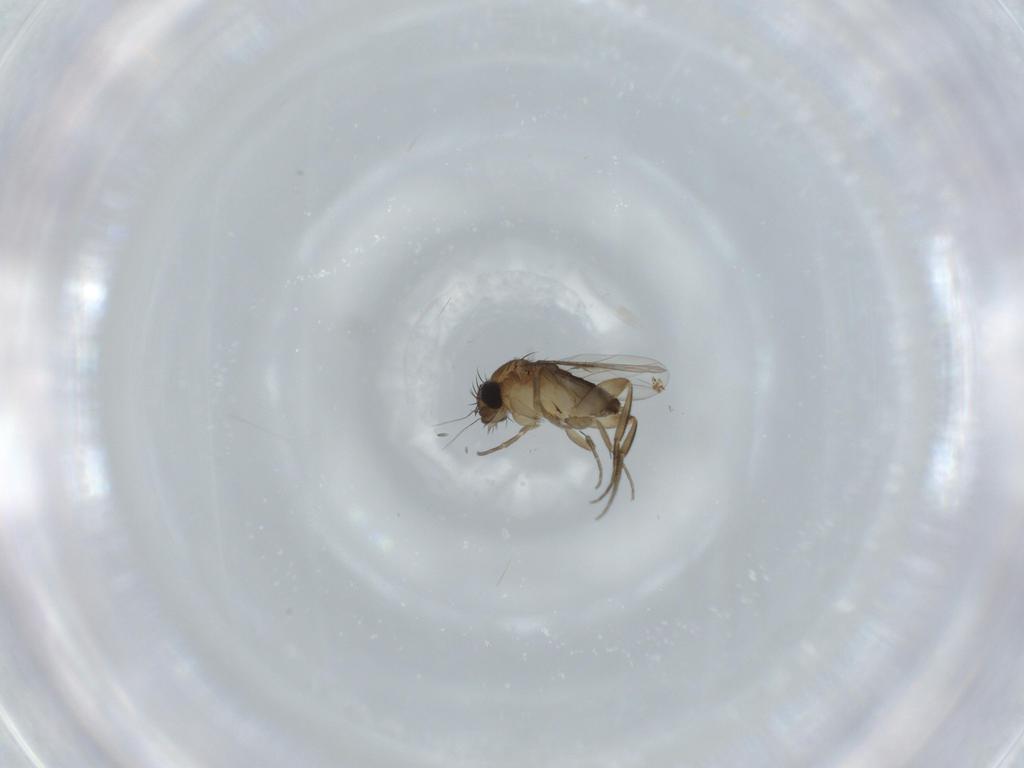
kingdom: Animalia
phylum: Arthropoda
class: Insecta
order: Diptera
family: Phoridae
